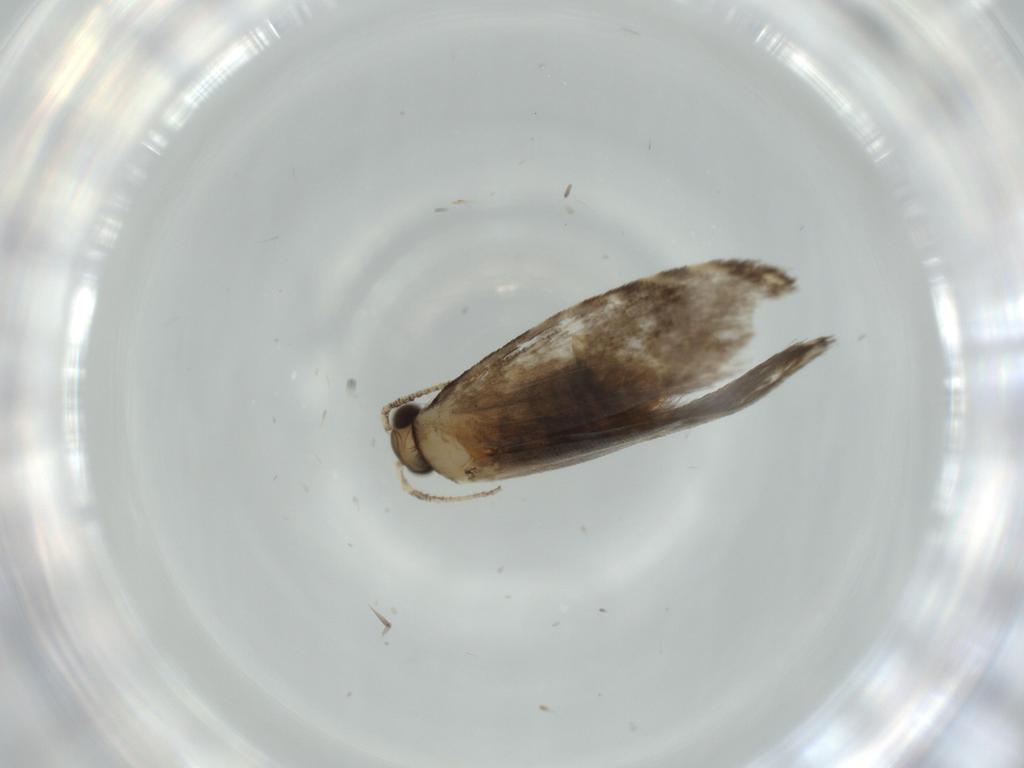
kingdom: Animalia
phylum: Arthropoda
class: Insecta
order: Lepidoptera
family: Tineidae
